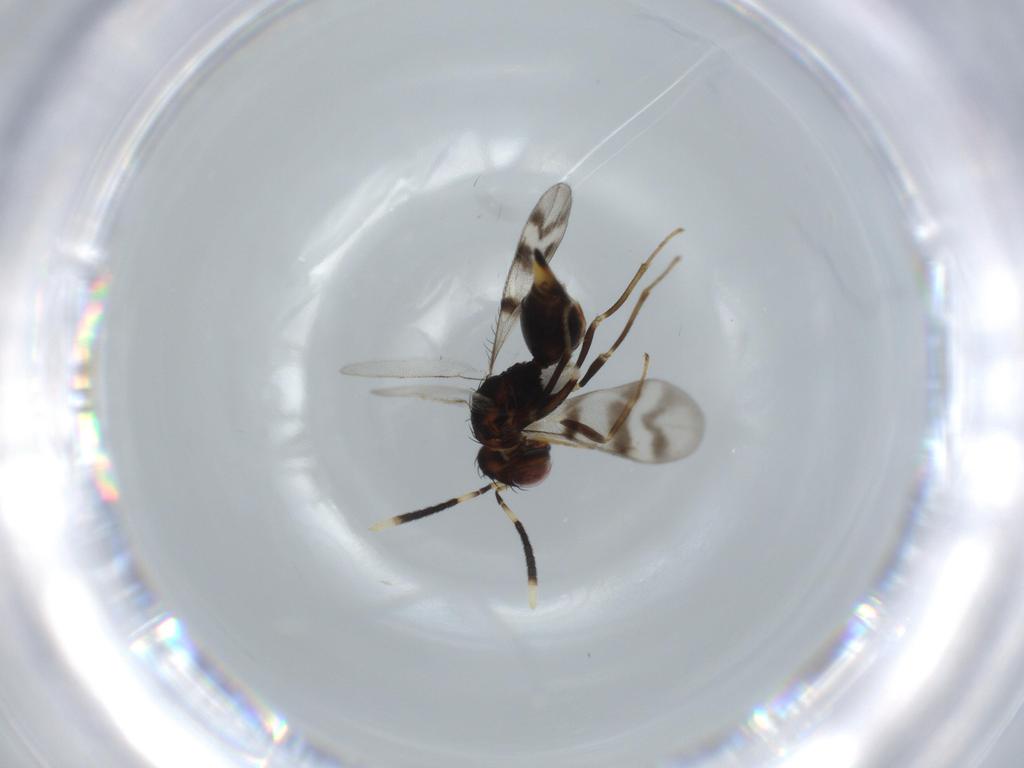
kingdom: Animalia
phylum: Arthropoda
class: Insecta
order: Hymenoptera
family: Diparidae
